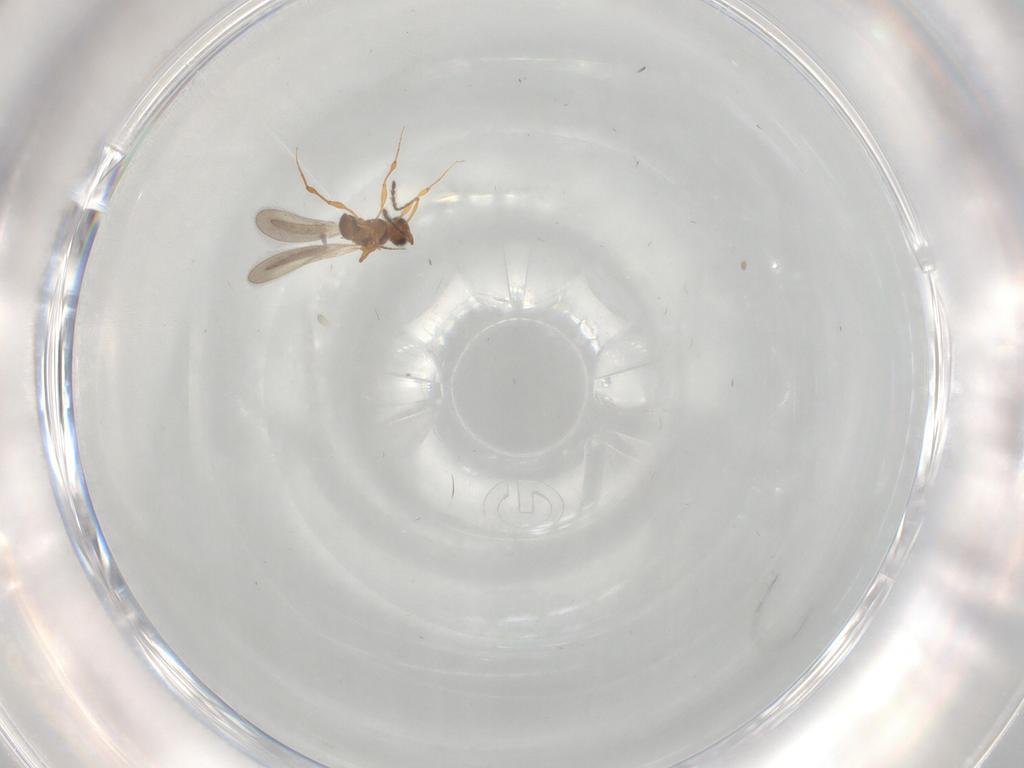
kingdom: Animalia
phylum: Arthropoda
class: Insecta
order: Hymenoptera
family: Platygastridae
